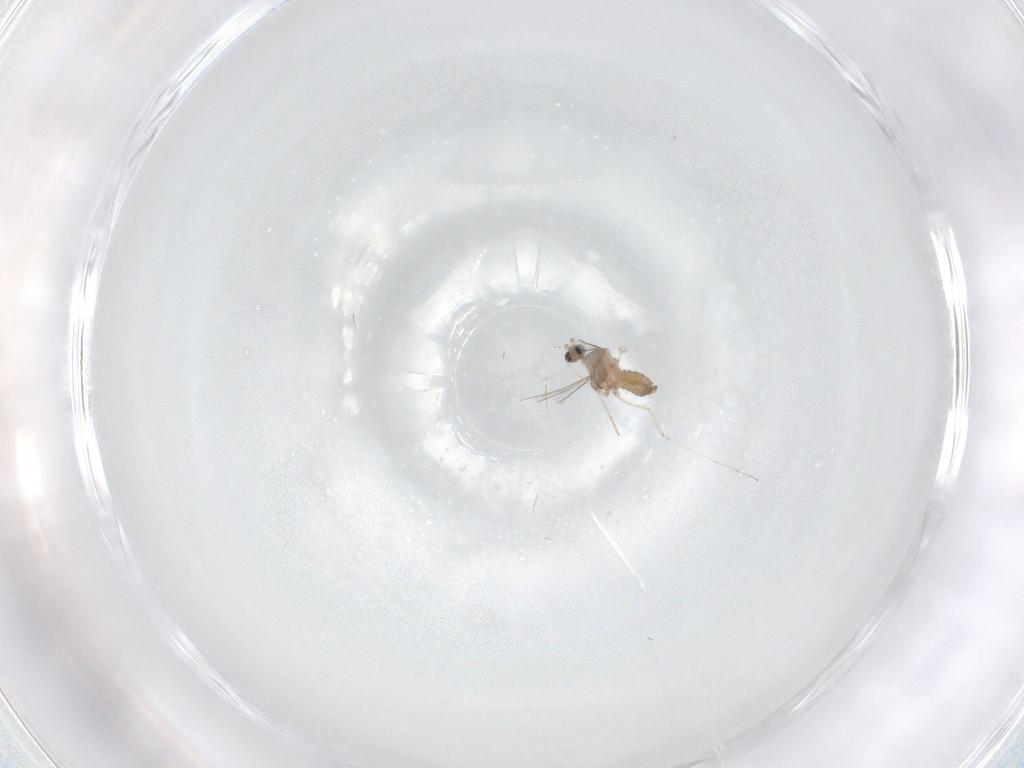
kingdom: Animalia
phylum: Arthropoda
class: Insecta
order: Diptera
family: Cecidomyiidae
